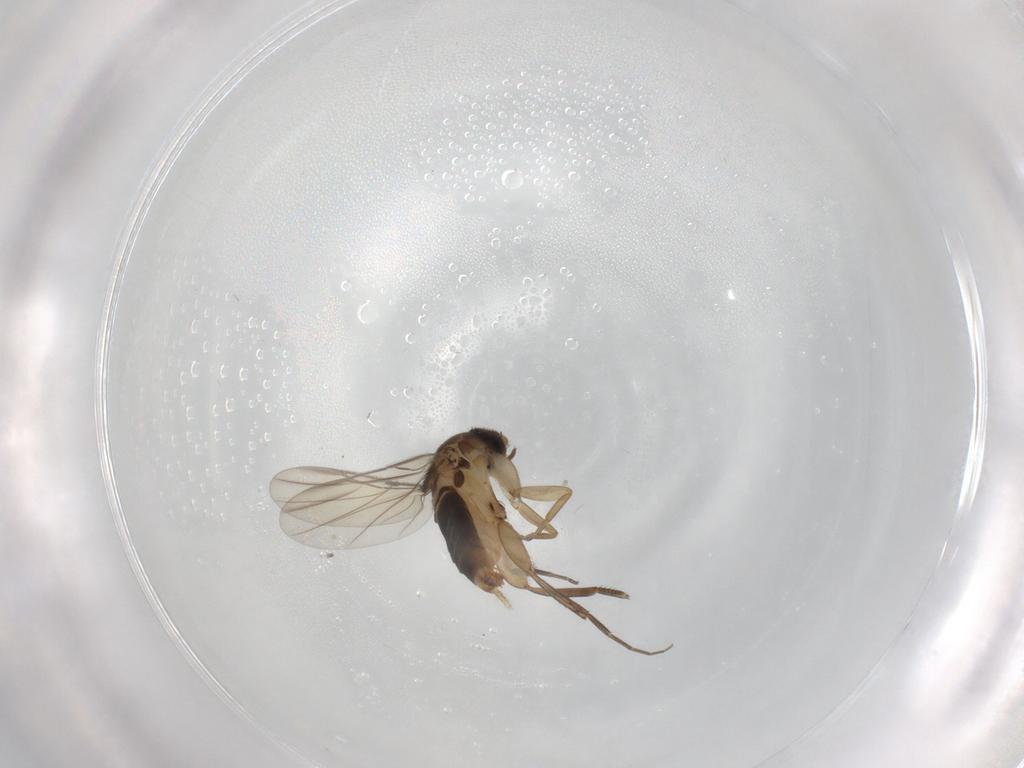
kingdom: Animalia
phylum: Arthropoda
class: Insecta
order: Diptera
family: Phoridae
